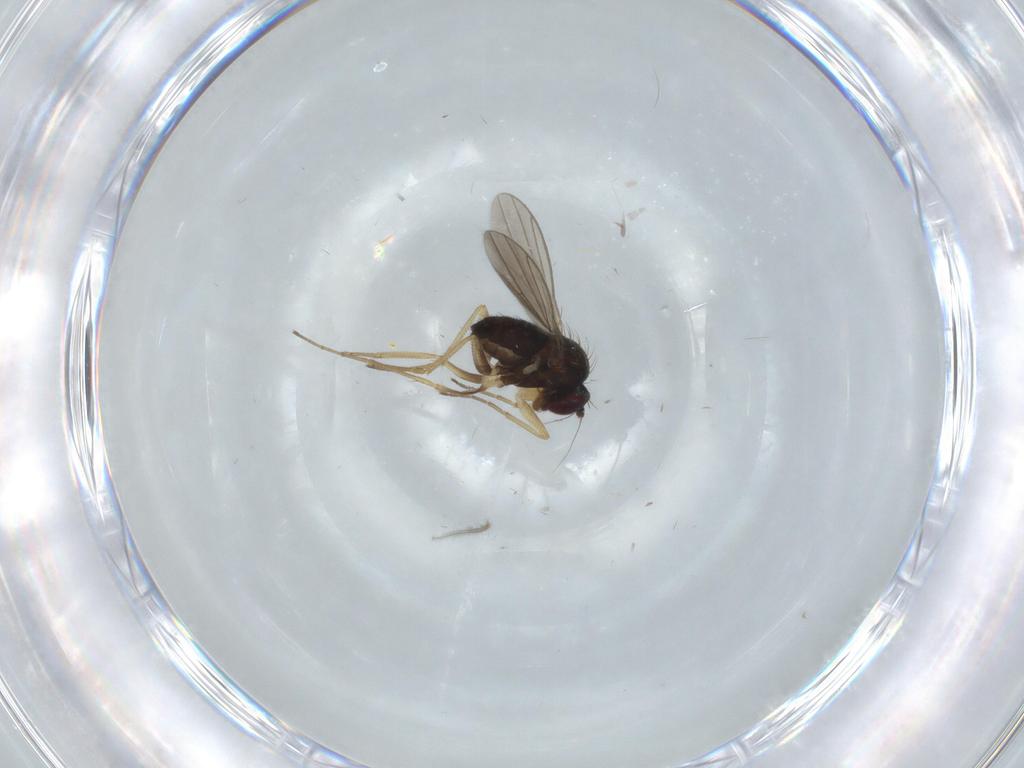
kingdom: Animalia
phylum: Arthropoda
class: Insecta
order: Diptera
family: Dolichopodidae
